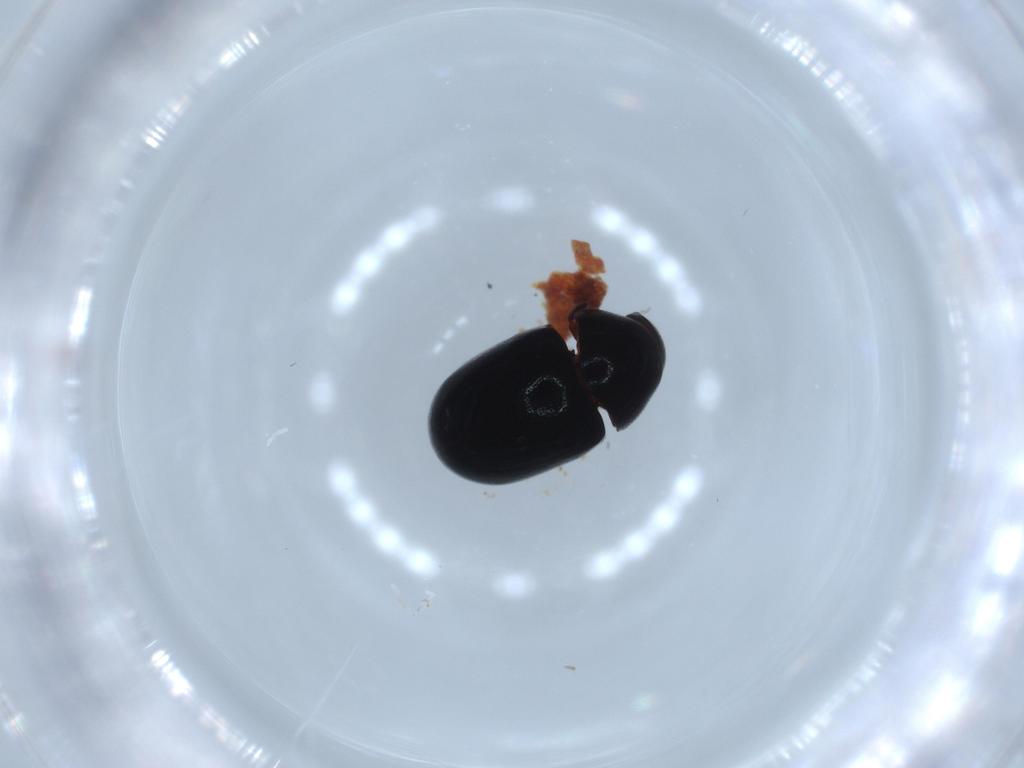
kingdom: Animalia
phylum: Arthropoda
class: Insecta
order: Coleoptera
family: Ptinidae
